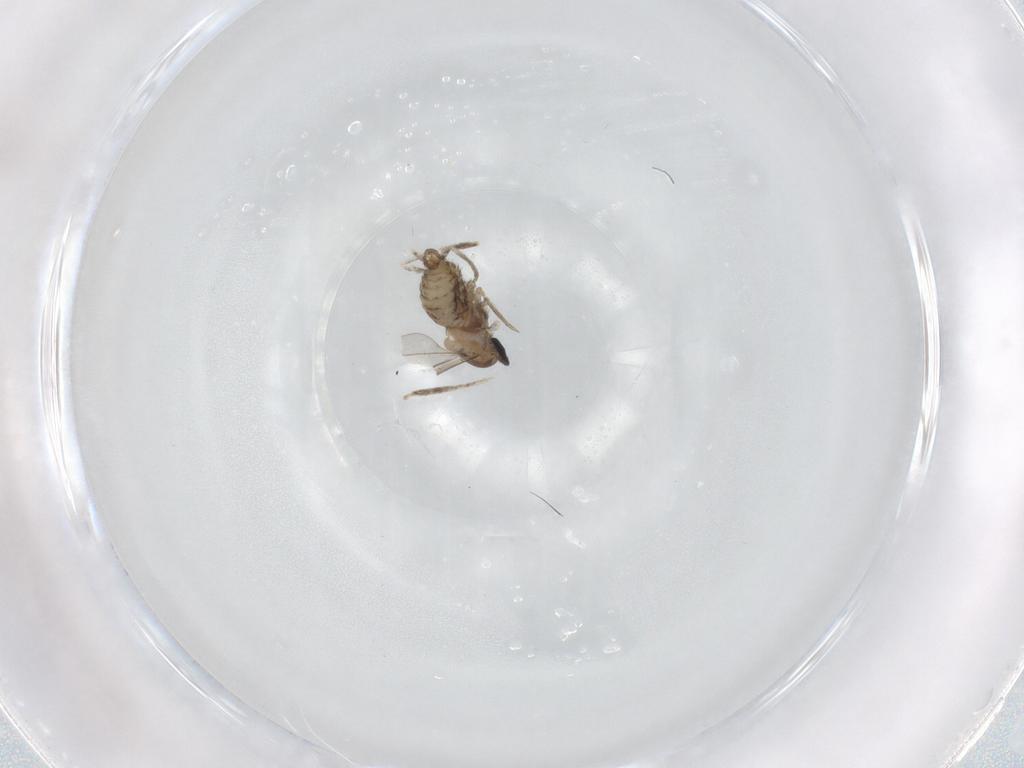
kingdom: Animalia
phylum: Arthropoda
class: Insecta
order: Diptera
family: Cecidomyiidae
